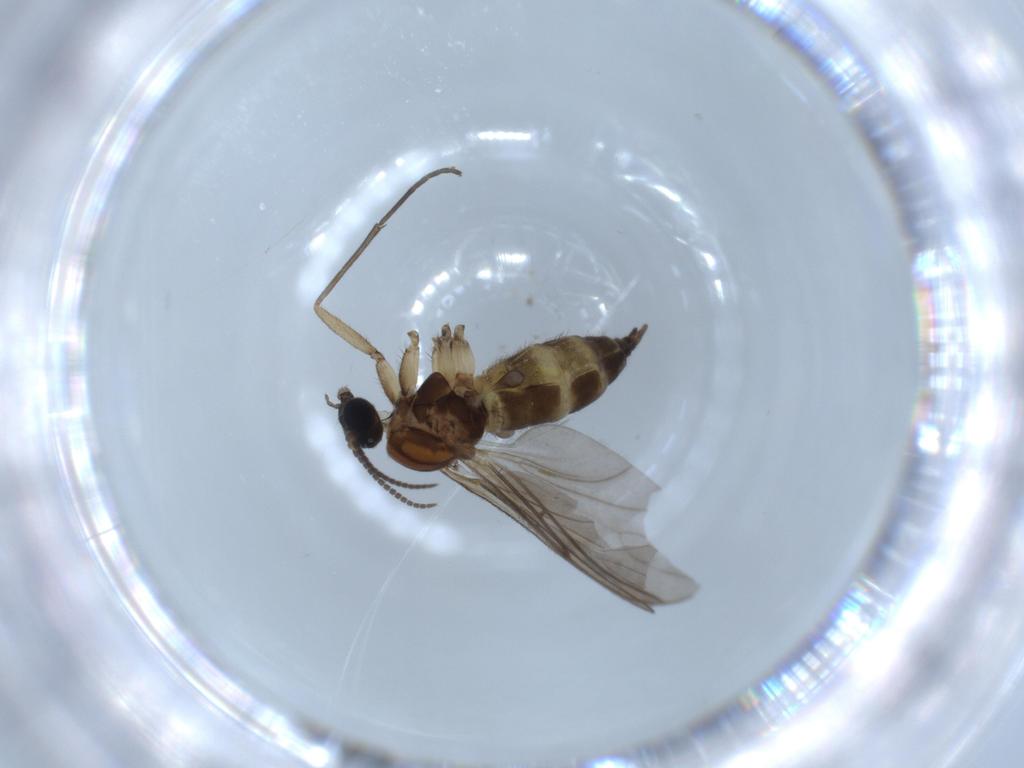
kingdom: Animalia
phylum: Arthropoda
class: Insecta
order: Diptera
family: Sciaridae
